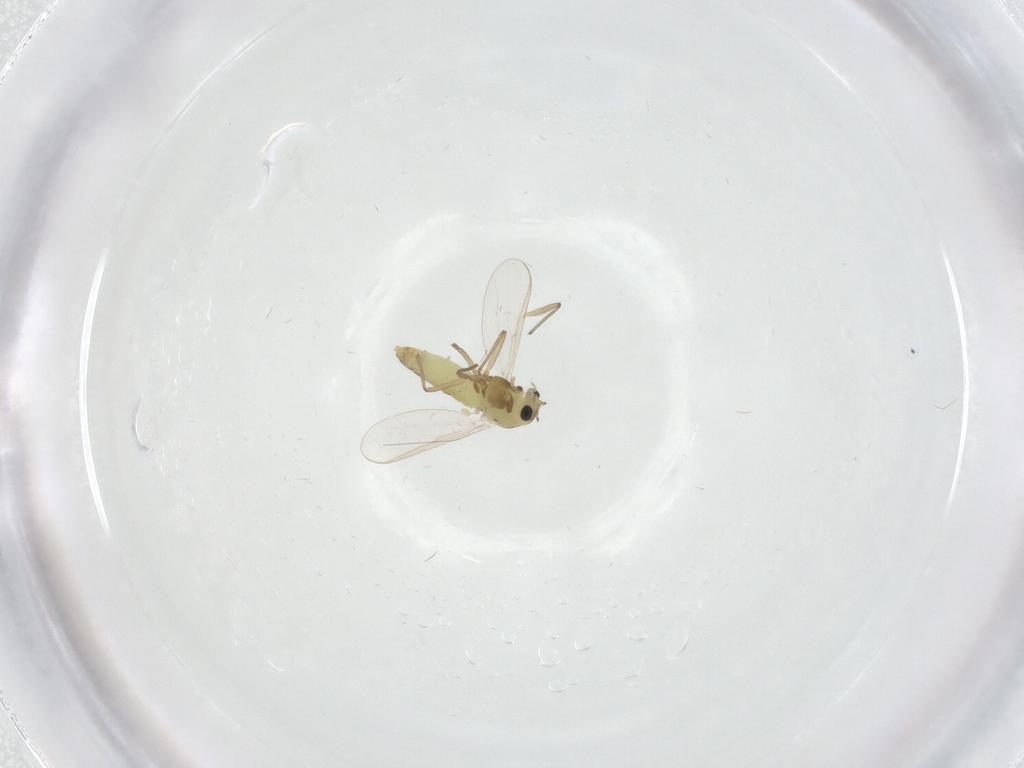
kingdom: Animalia
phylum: Arthropoda
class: Insecta
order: Diptera
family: Chironomidae
